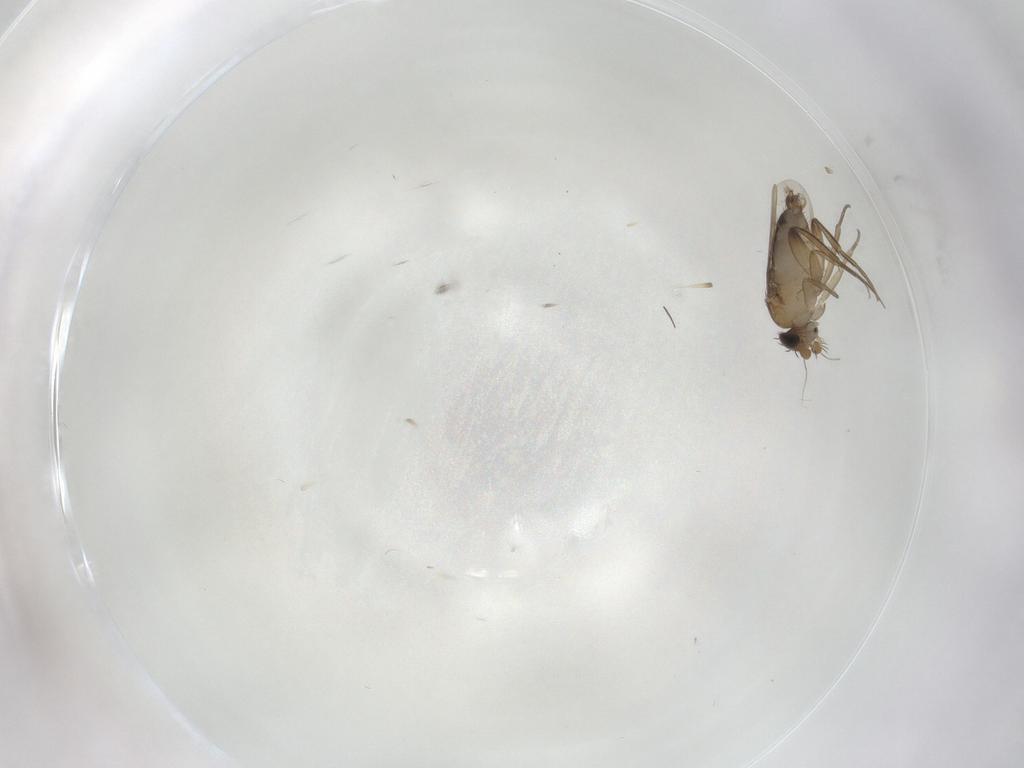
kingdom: Animalia
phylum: Arthropoda
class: Insecta
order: Diptera
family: Phoridae
